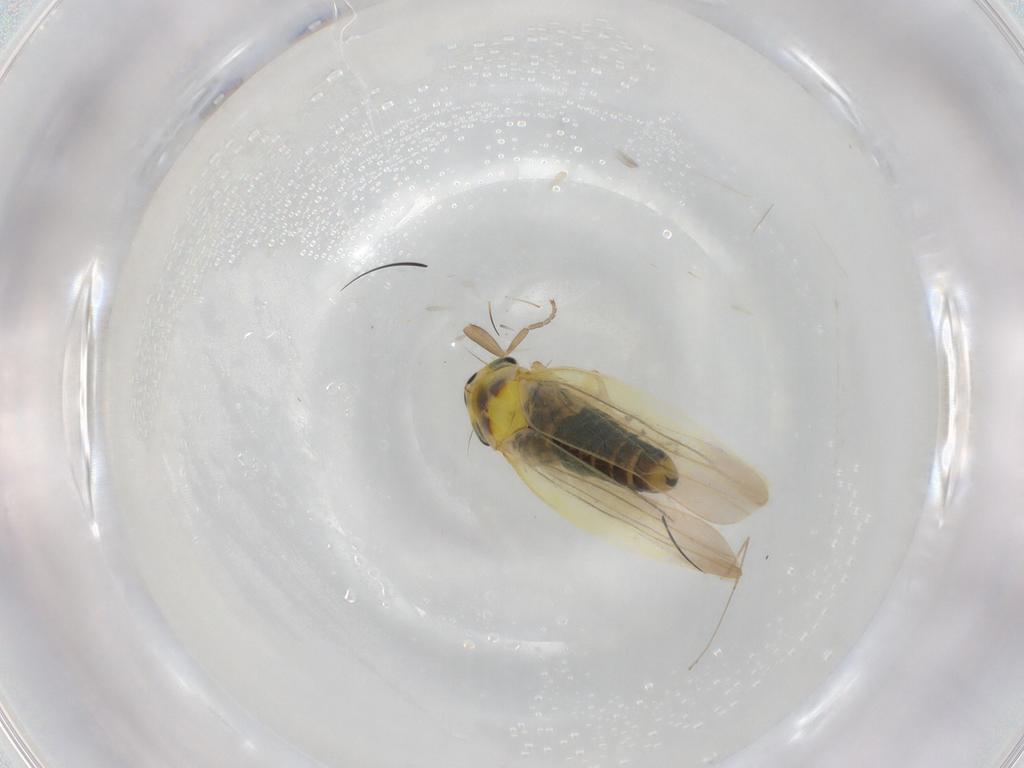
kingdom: Animalia
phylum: Arthropoda
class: Insecta
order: Hemiptera
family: Cicadellidae
